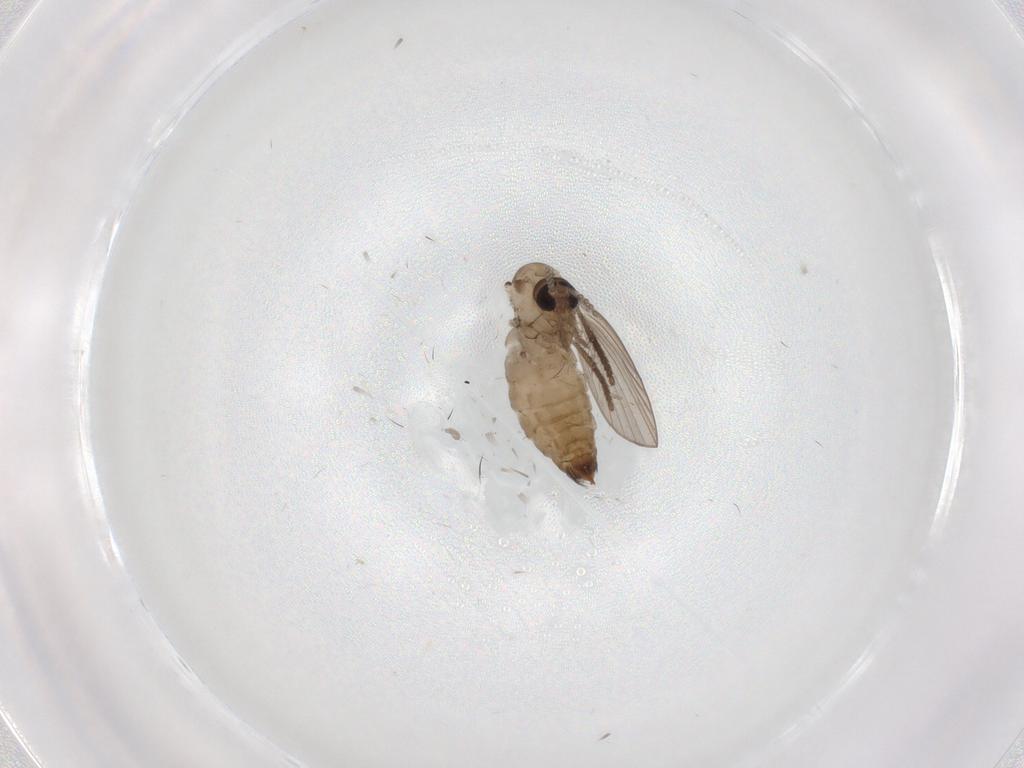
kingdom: Animalia
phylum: Arthropoda
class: Insecta
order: Diptera
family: Psychodidae
